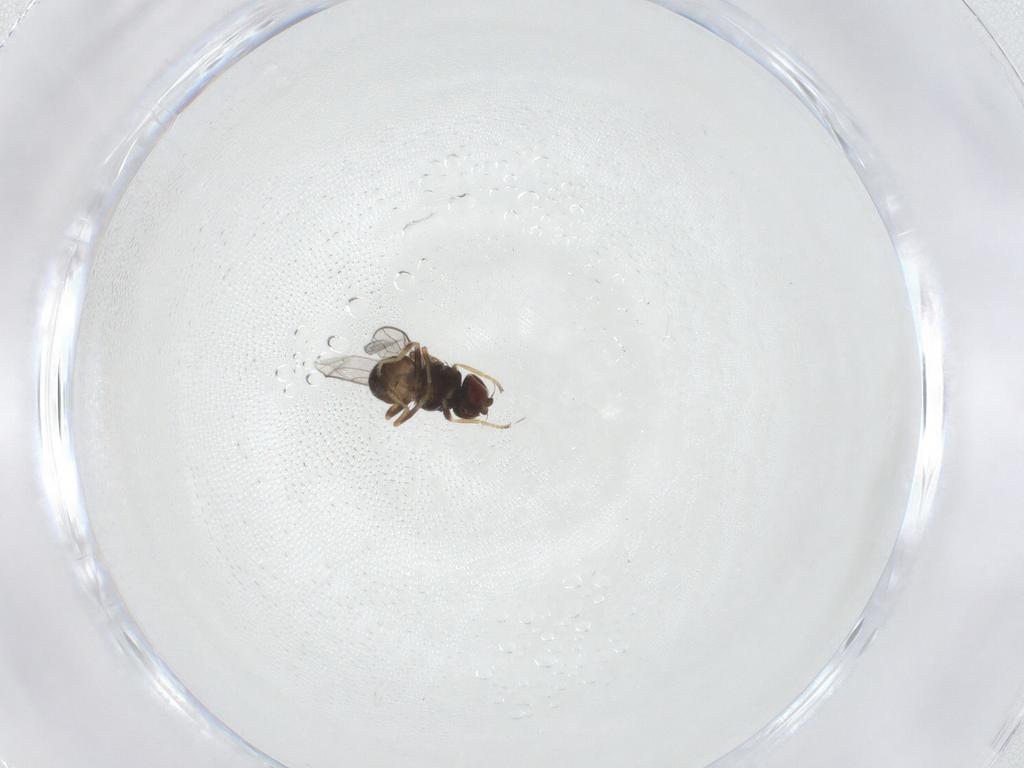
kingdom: Animalia
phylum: Arthropoda
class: Insecta
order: Diptera
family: Chloropidae
